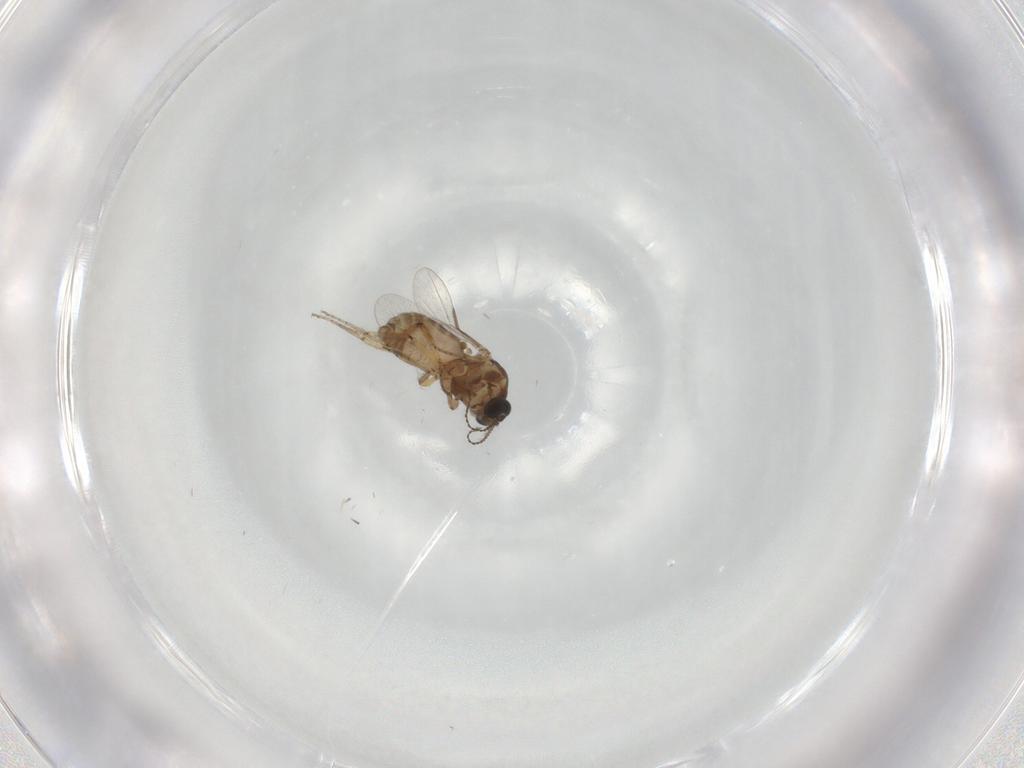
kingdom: Animalia
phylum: Arthropoda
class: Insecta
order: Diptera
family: Ceratopogonidae
